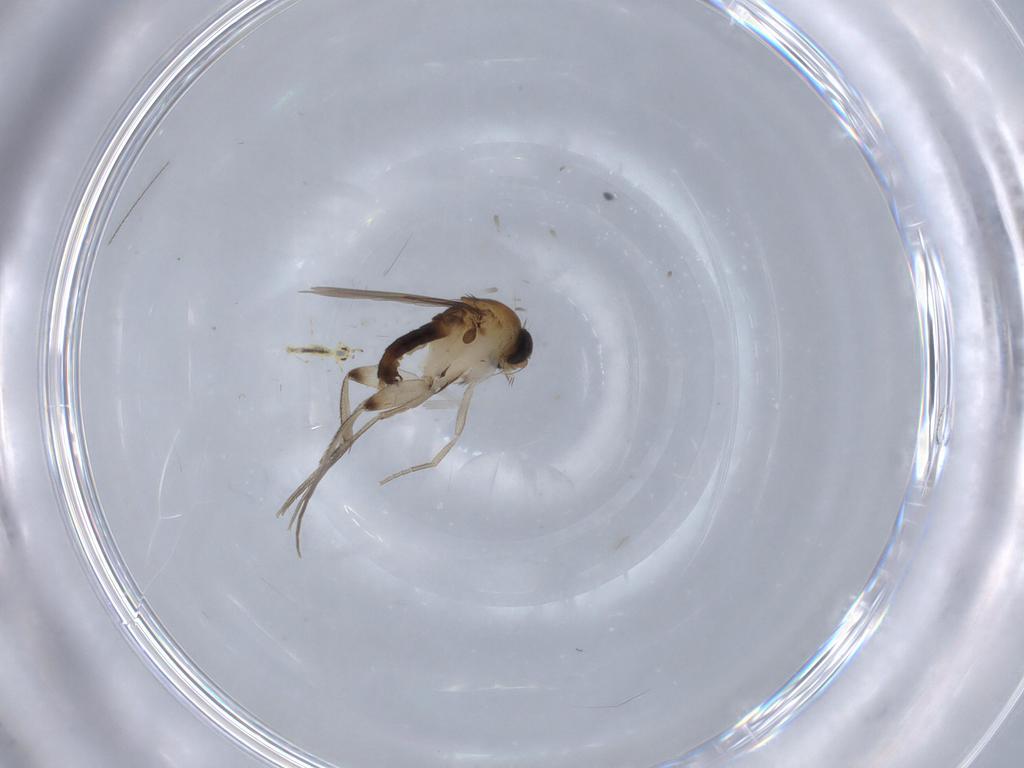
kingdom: Animalia
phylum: Arthropoda
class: Insecta
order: Diptera
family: Phoridae
